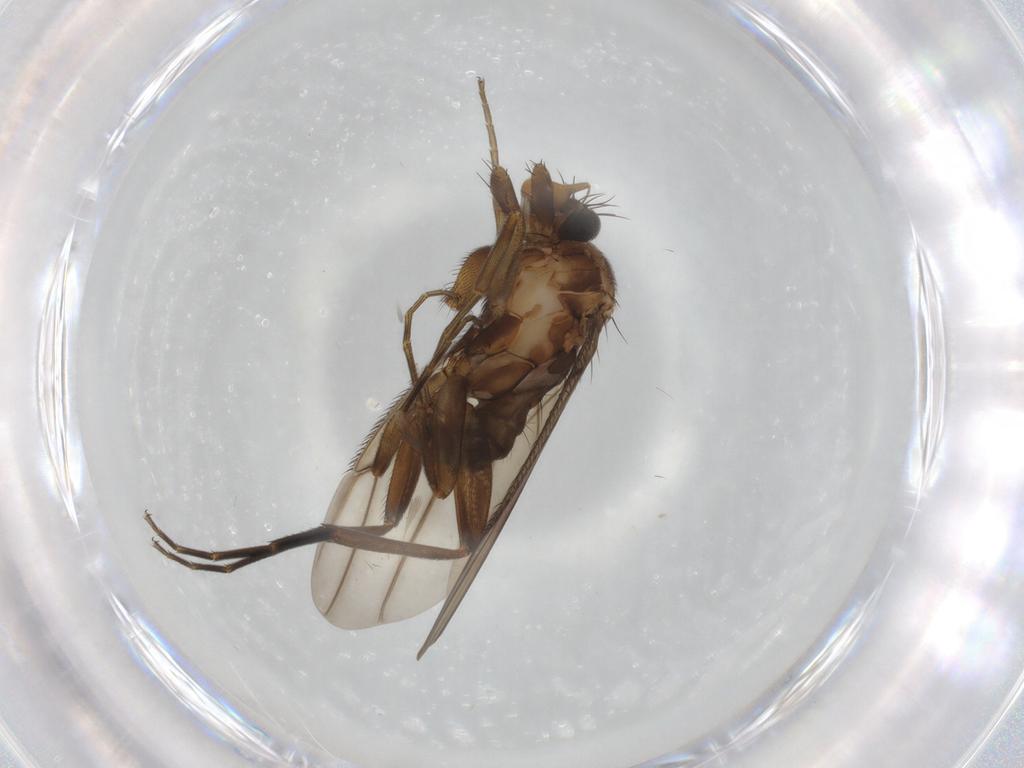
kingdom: Animalia
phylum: Arthropoda
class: Insecta
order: Diptera
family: Phoridae
